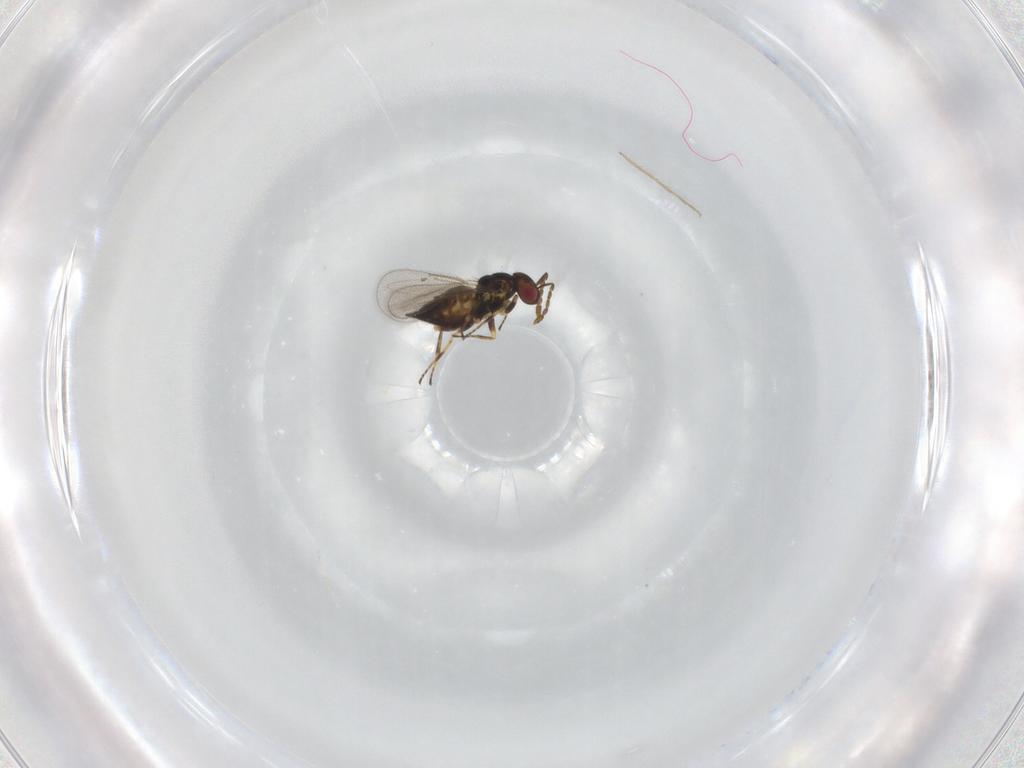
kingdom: Animalia
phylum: Arthropoda
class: Insecta
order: Hymenoptera
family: Eulophidae
